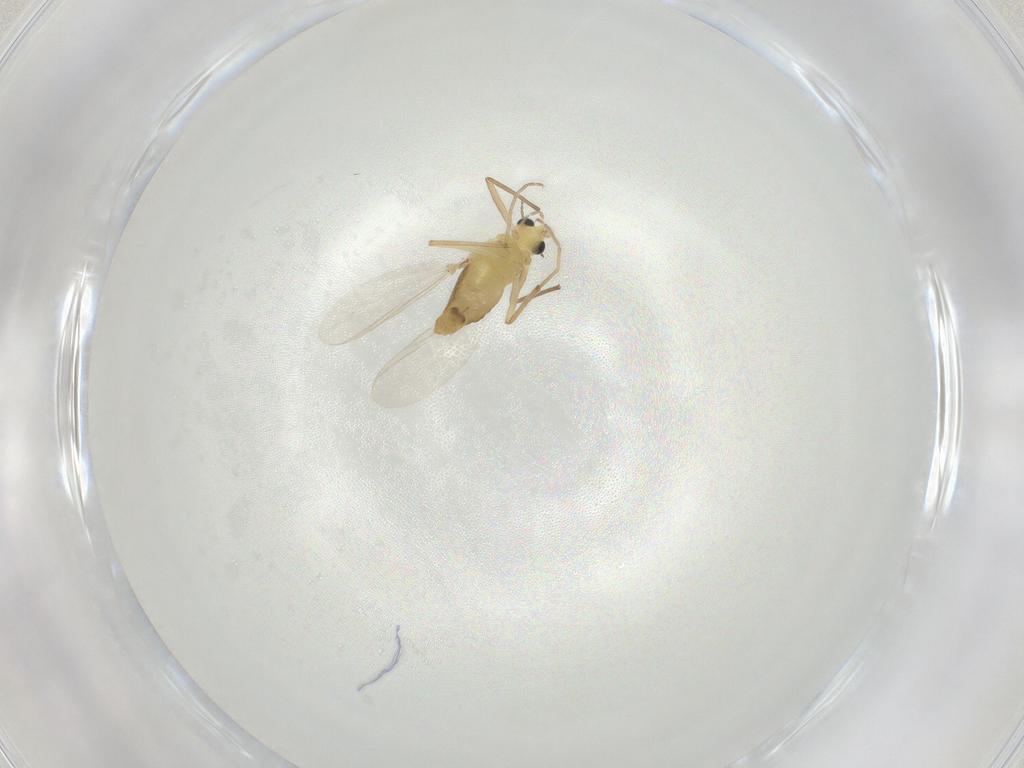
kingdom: Animalia
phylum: Arthropoda
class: Insecta
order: Diptera
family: Chironomidae
